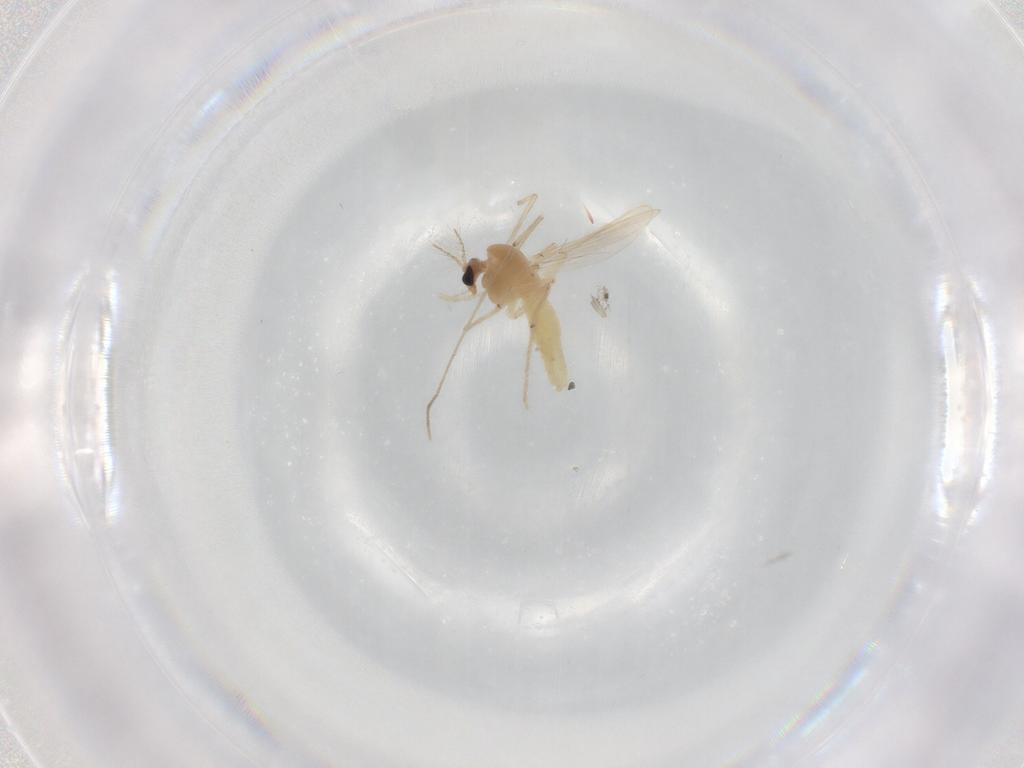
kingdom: Animalia
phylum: Arthropoda
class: Insecta
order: Diptera
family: Chironomidae
